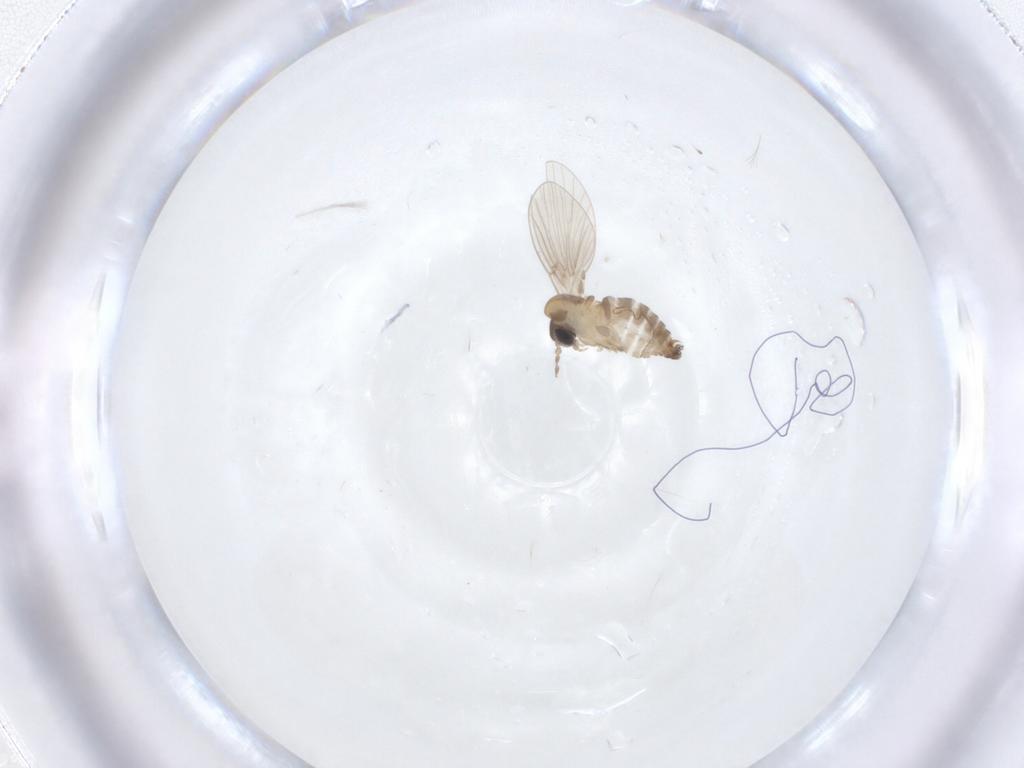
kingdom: Animalia
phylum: Arthropoda
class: Insecta
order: Diptera
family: Psychodidae
